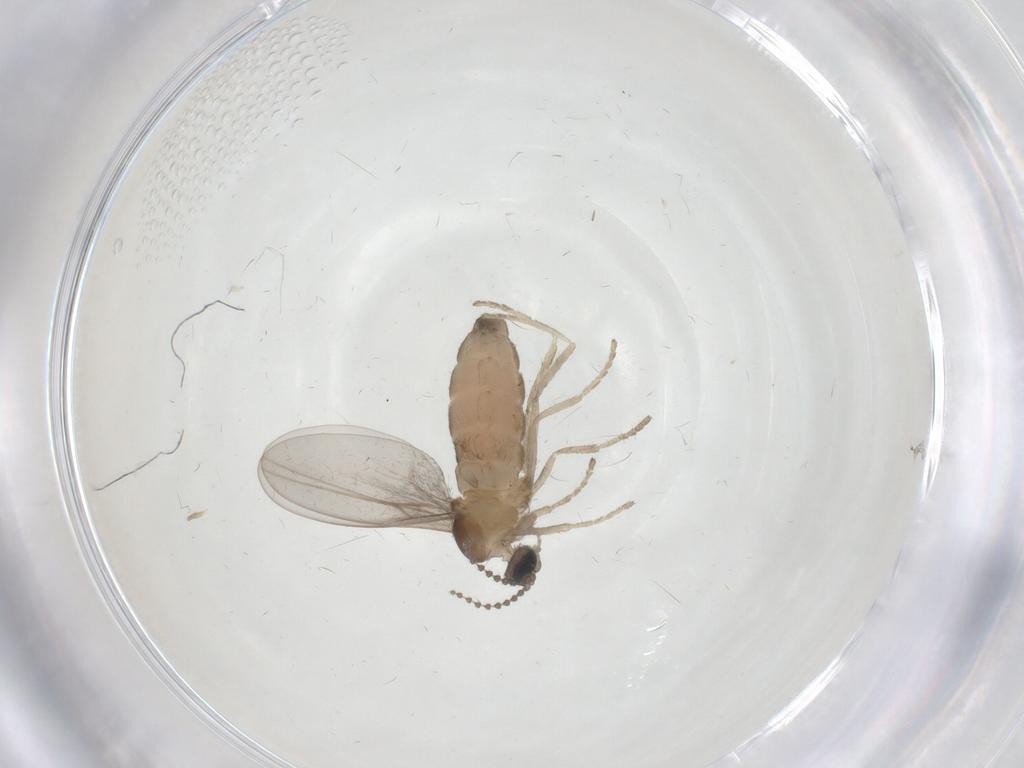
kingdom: Animalia
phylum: Arthropoda
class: Insecta
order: Diptera
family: Cecidomyiidae
